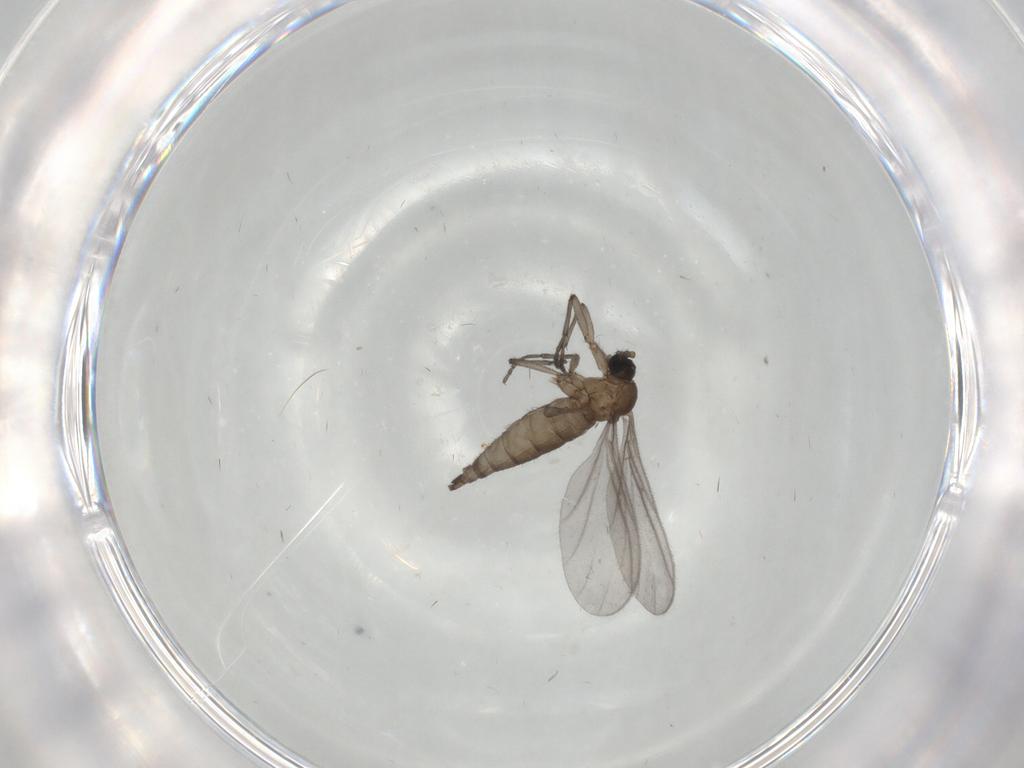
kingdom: Animalia
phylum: Arthropoda
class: Insecta
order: Diptera
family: Sciaridae
